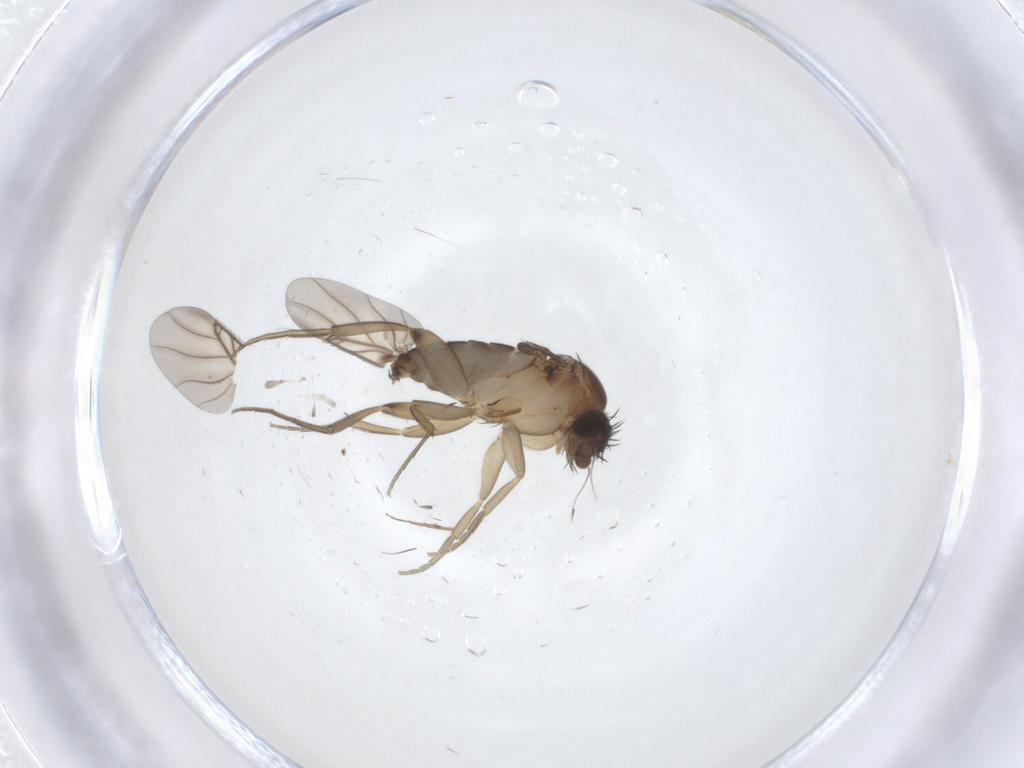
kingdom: Animalia
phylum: Arthropoda
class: Insecta
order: Diptera
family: Phoridae
